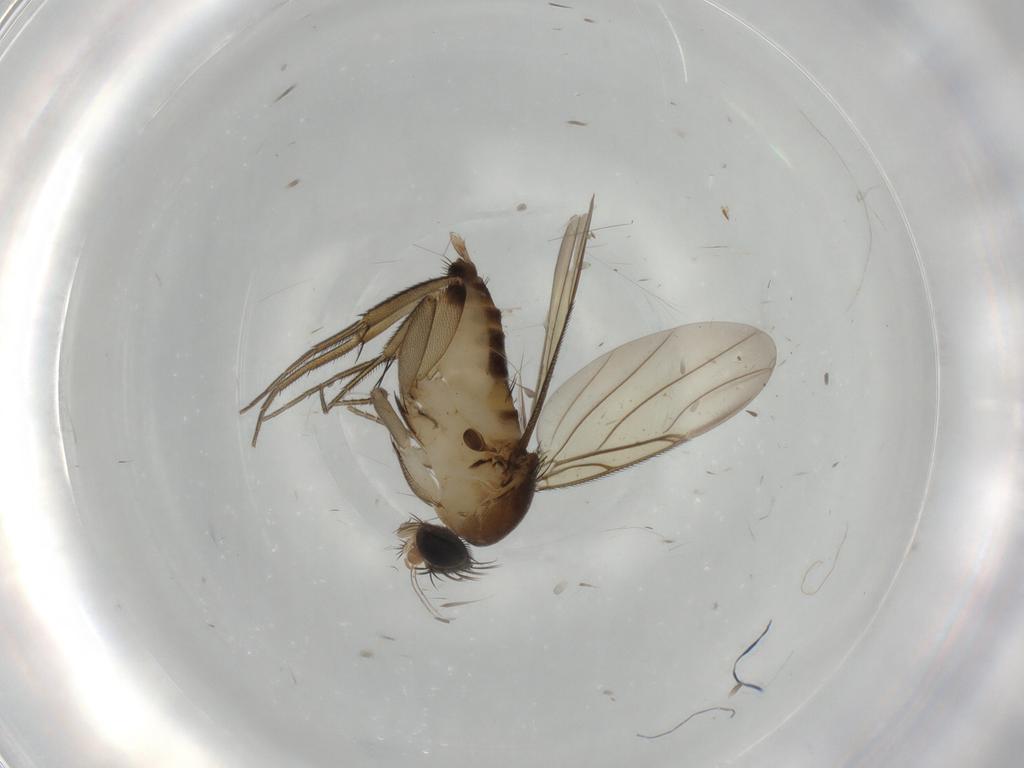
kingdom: Animalia
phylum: Arthropoda
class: Insecta
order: Diptera
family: Phoridae
